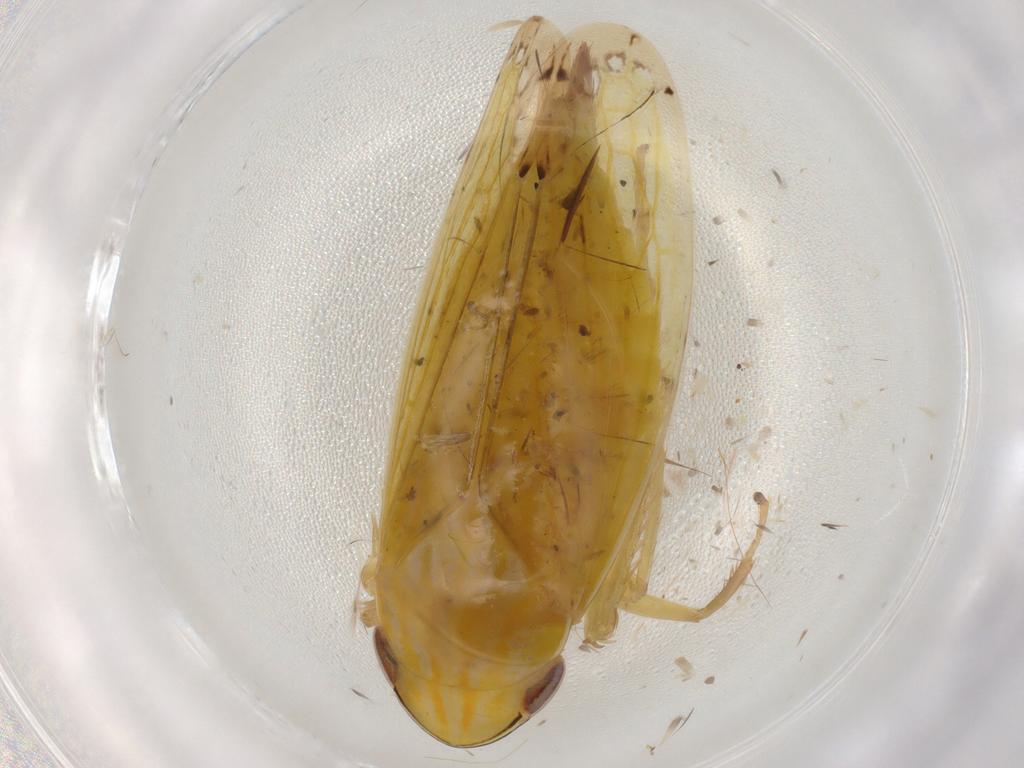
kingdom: Animalia
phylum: Arthropoda
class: Insecta
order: Hemiptera
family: Cicadellidae
